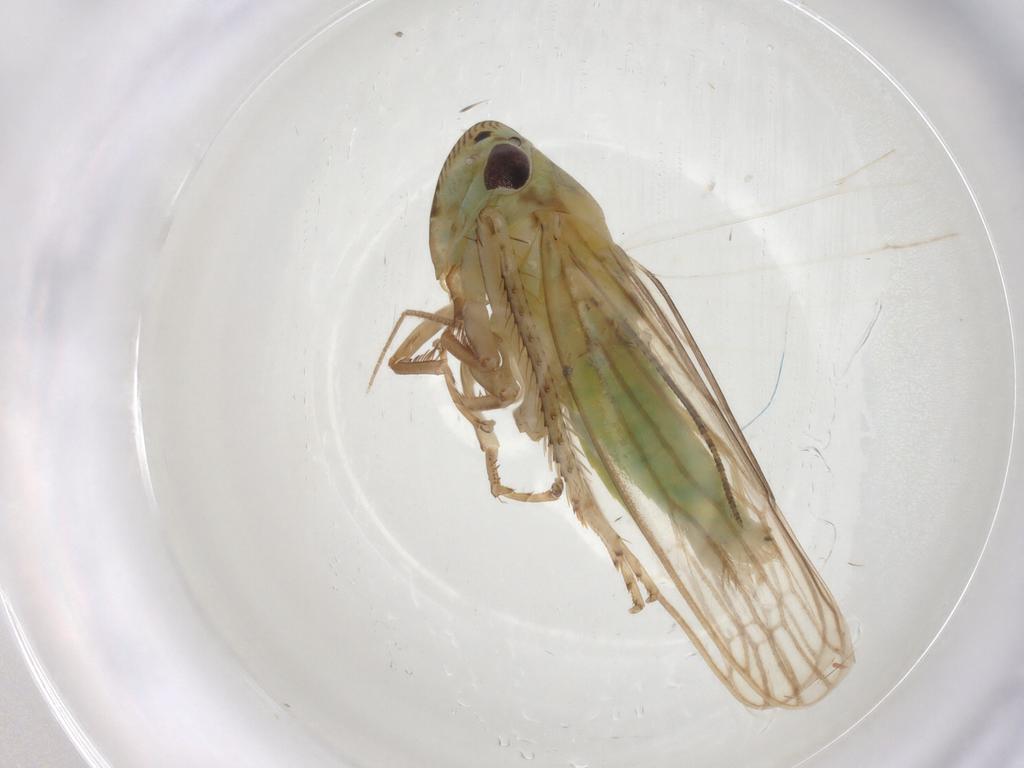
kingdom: Animalia
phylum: Arthropoda
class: Insecta
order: Hemiptera
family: Cicadellidae
